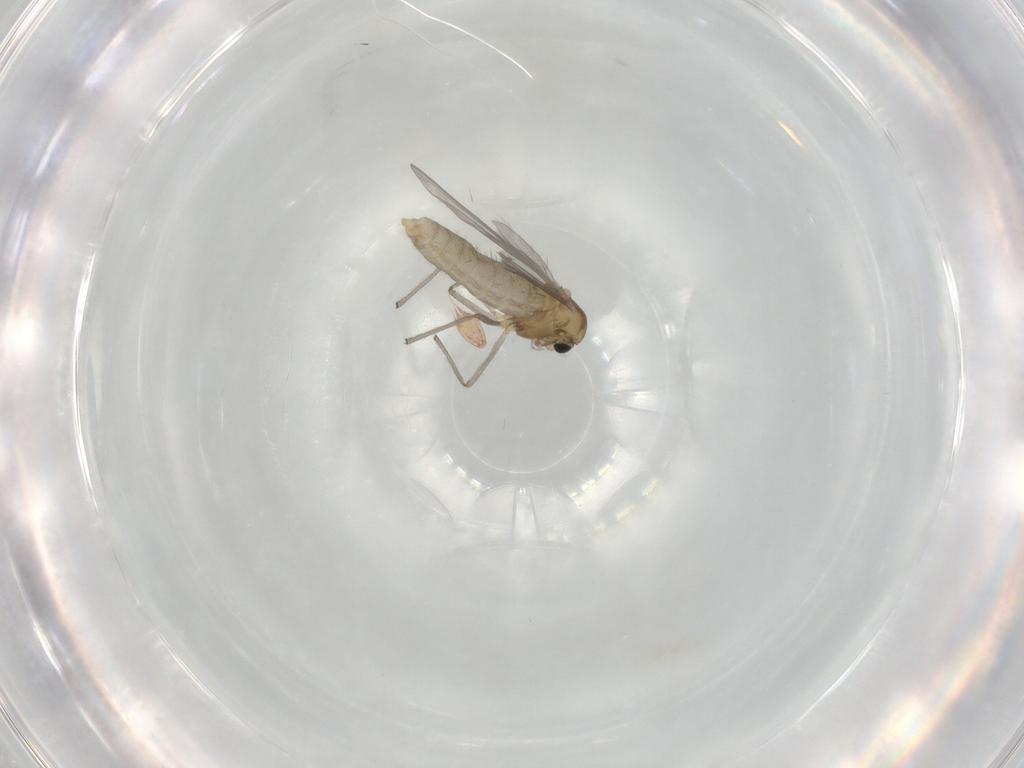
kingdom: Animalia
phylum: Arthropoda
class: Insecta
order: Diptera
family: Chironomidae
